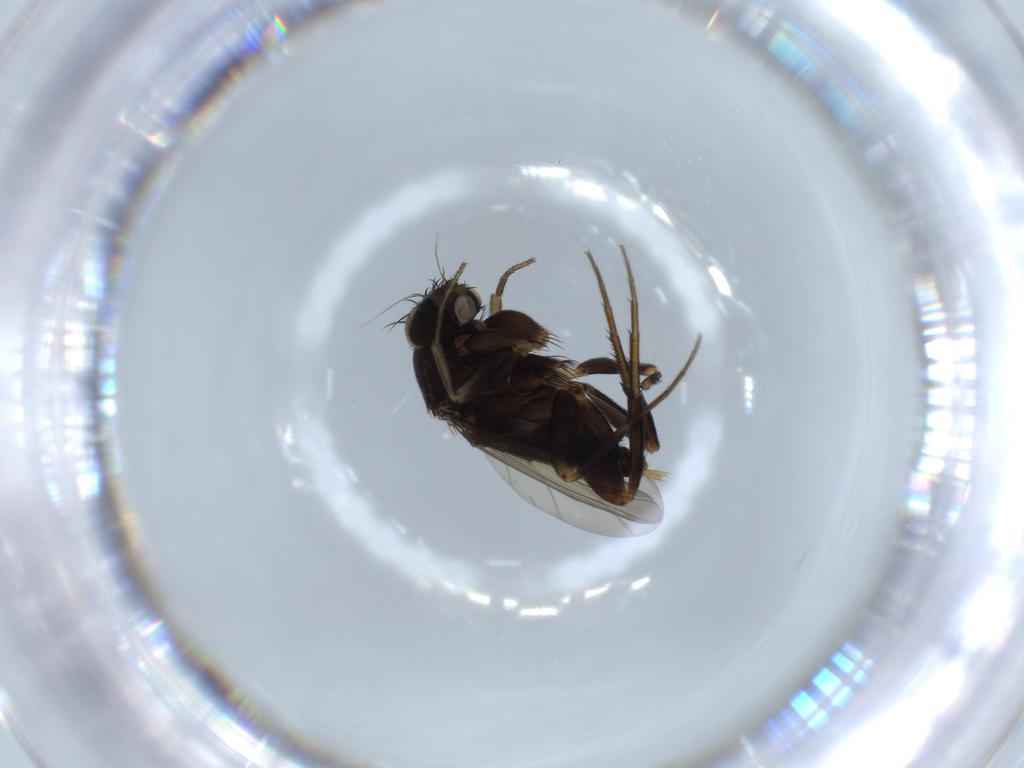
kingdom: Animalia
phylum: Arthropoda
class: Insecta
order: Diptera
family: Phoridae
